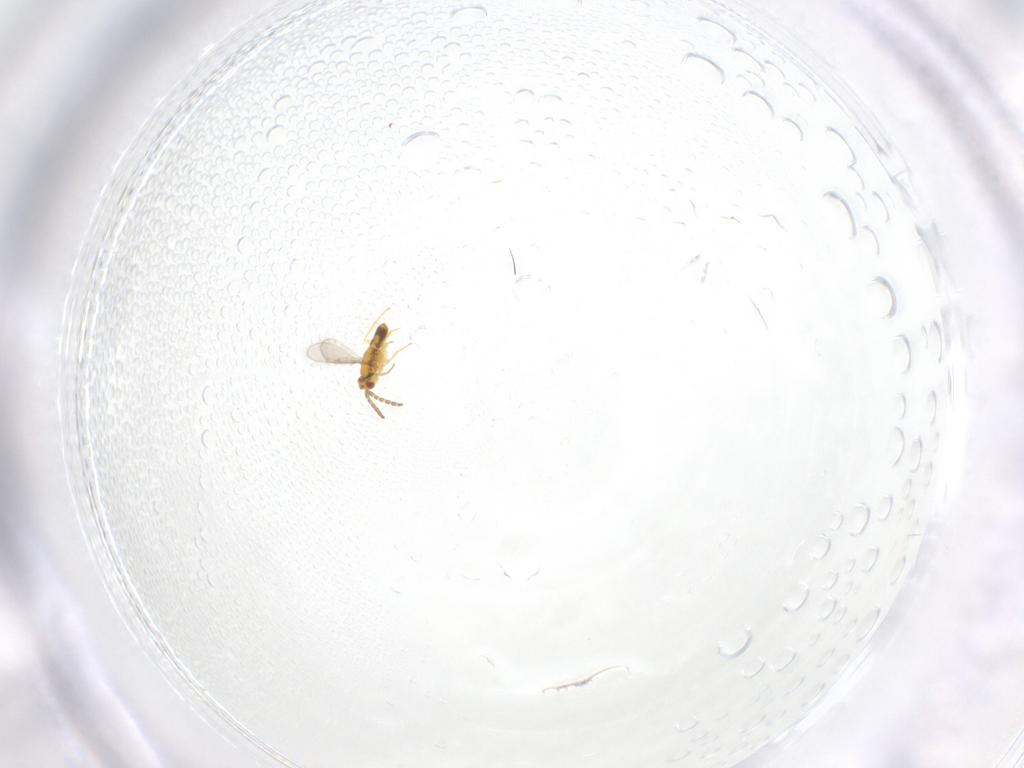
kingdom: Animalia
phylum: Arthropoda
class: Insecta
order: Hymenoptera
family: Aphelinidae
